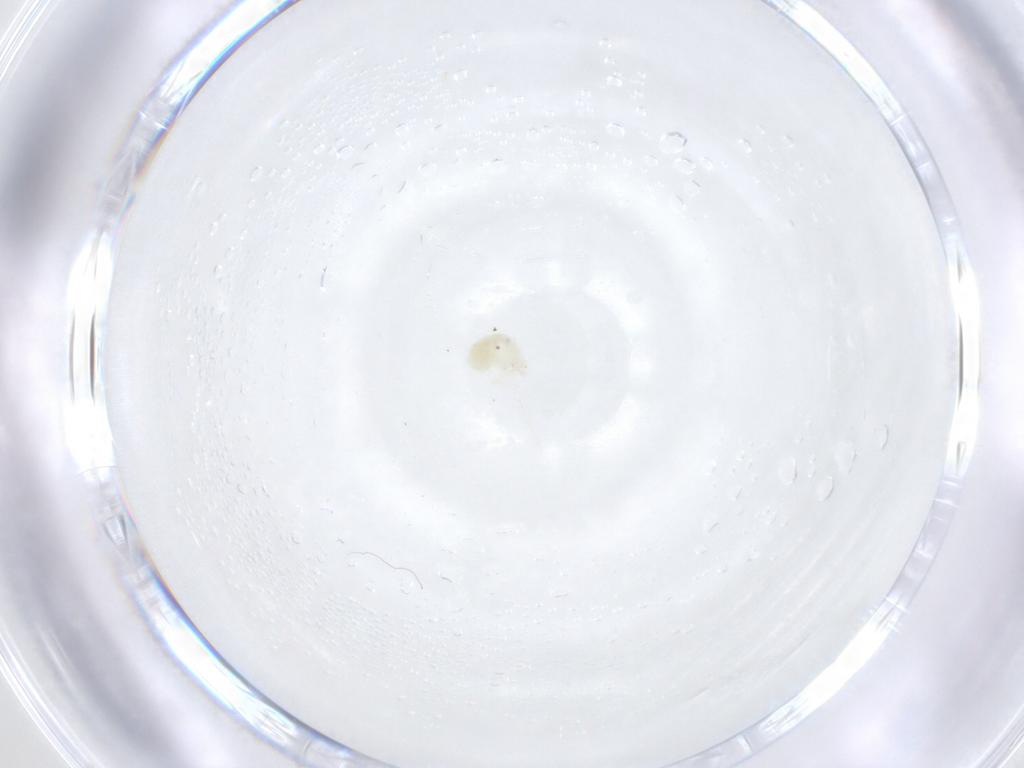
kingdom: Animalia
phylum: Arthropoda
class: Arachnida
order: Trombidiformes
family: Anystidae
